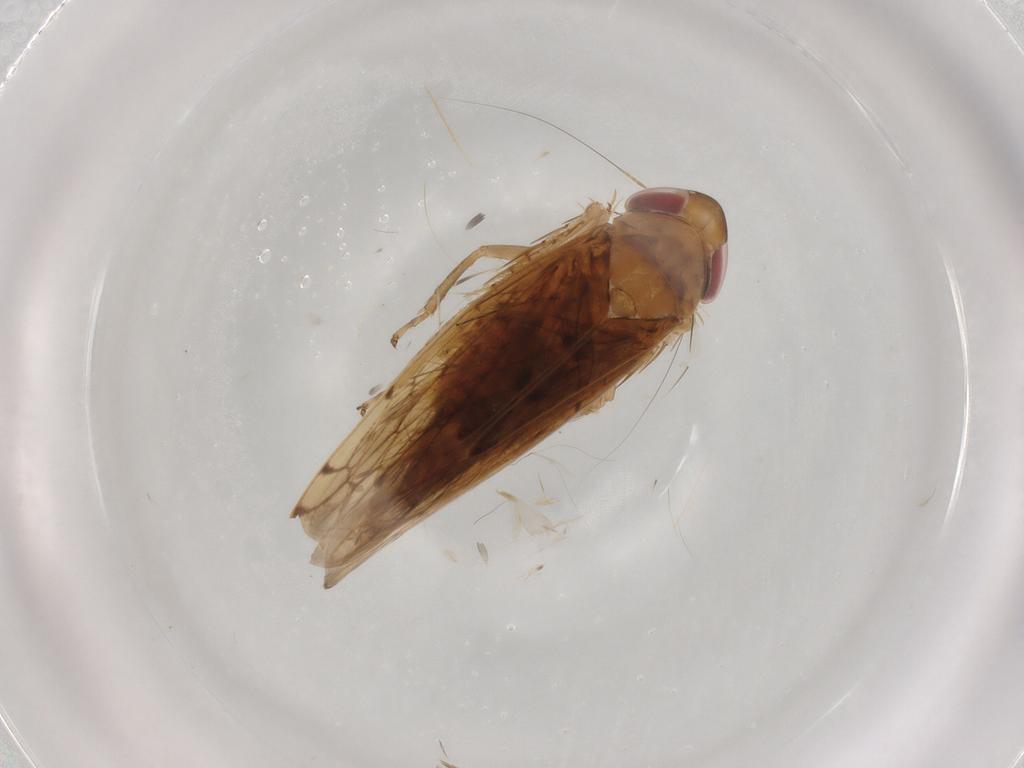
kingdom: Animalia
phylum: Arthropoda
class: Insecta
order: Hemiptera
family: Cicadellidae
